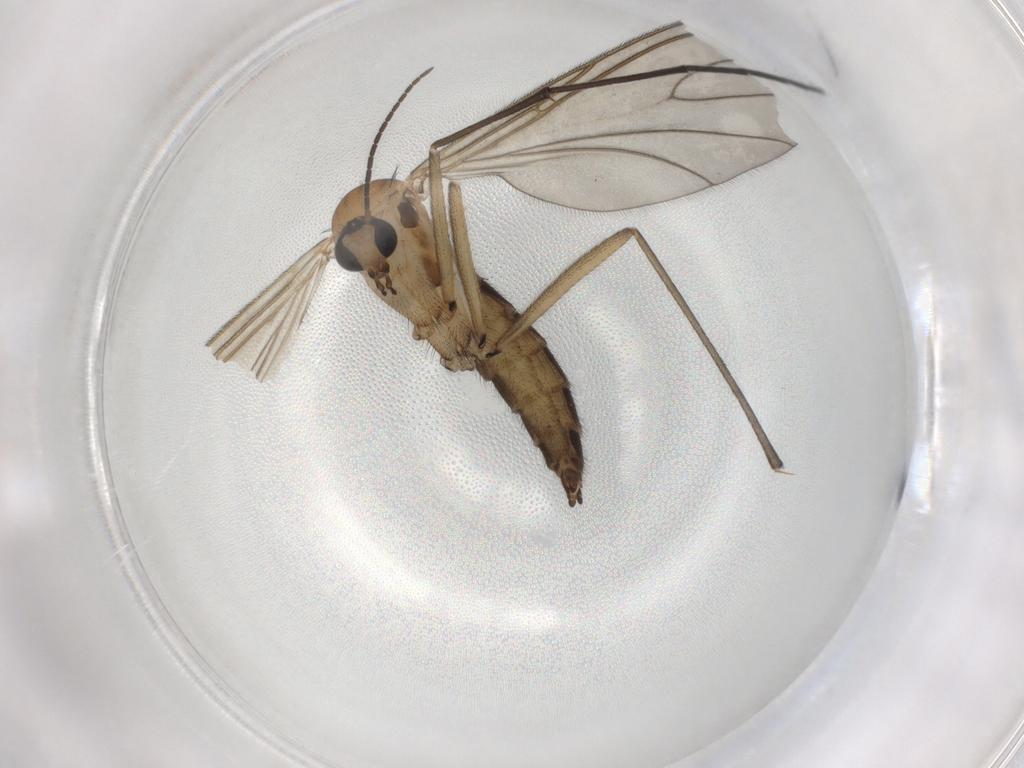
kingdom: Animalia
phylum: Arthropoda
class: Insecta
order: Diptera
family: Sciaridae
